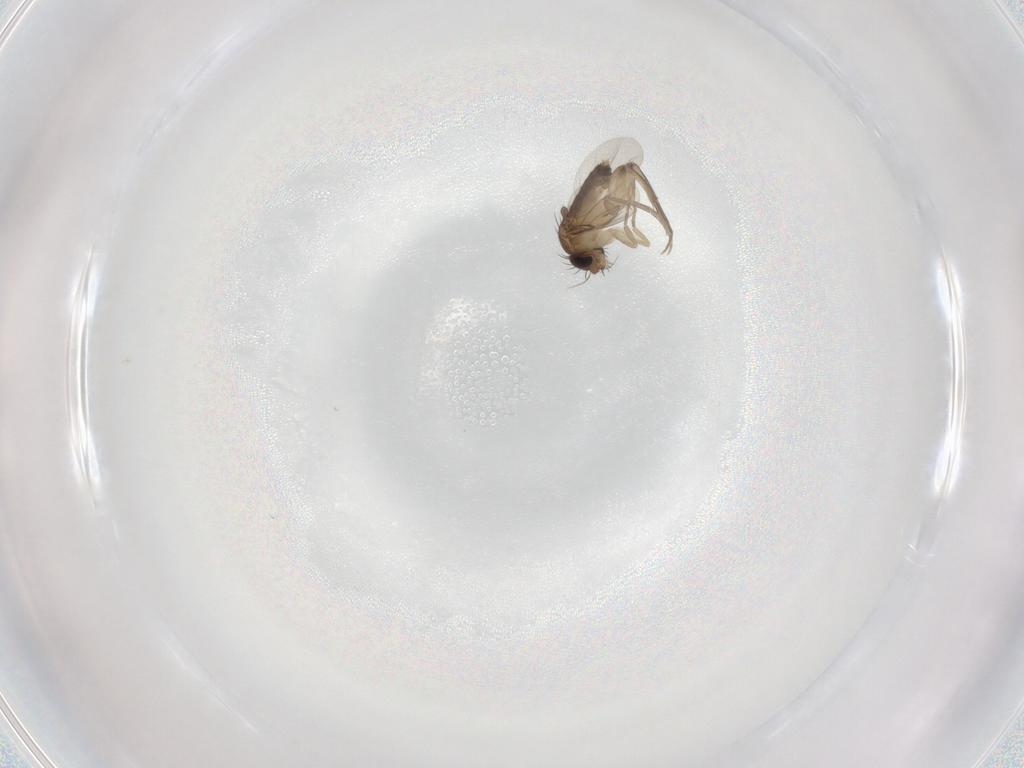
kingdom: Animalia
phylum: Arthropoda
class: Insecta
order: Diptera
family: Phoridae
